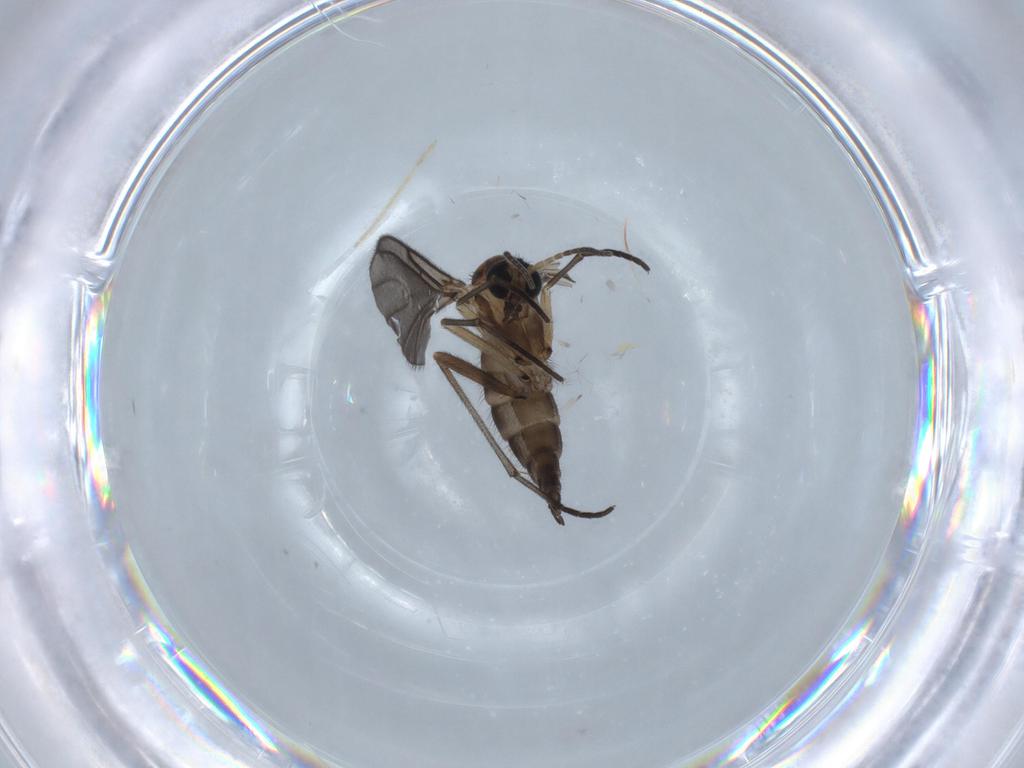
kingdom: Animalia
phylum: Arthropoda
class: Insecta
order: Diptera
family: Sciaridae
